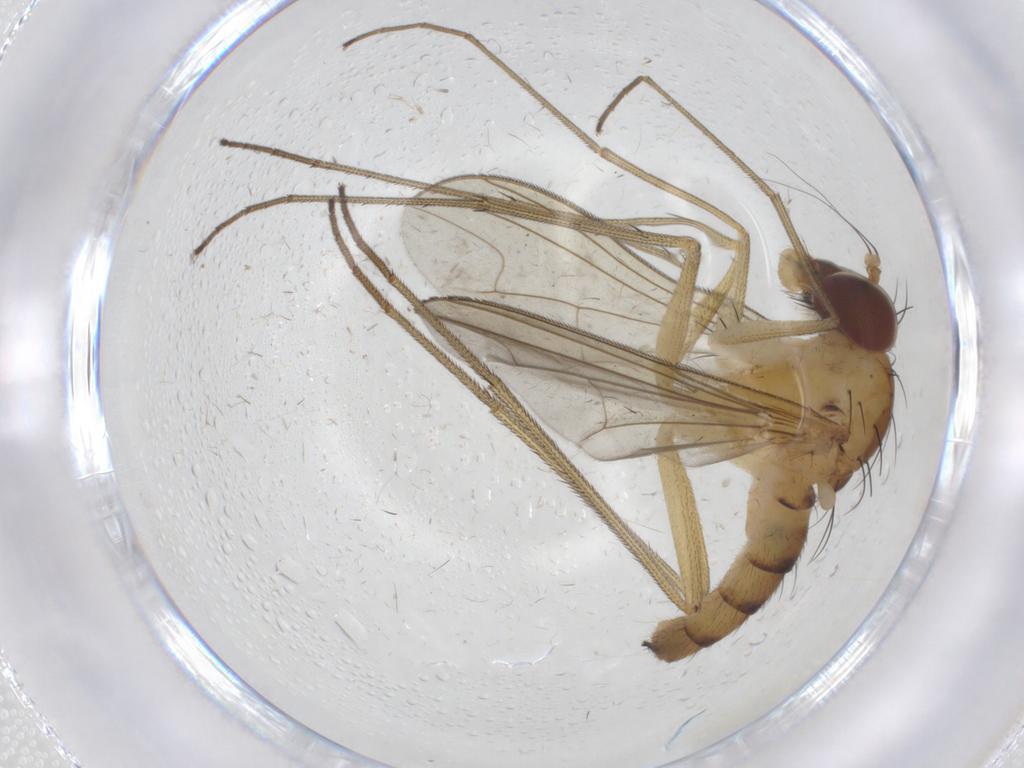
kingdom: Animalia
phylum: Arthropoda
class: Insecta
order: Diptera
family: Dolichopodidae
